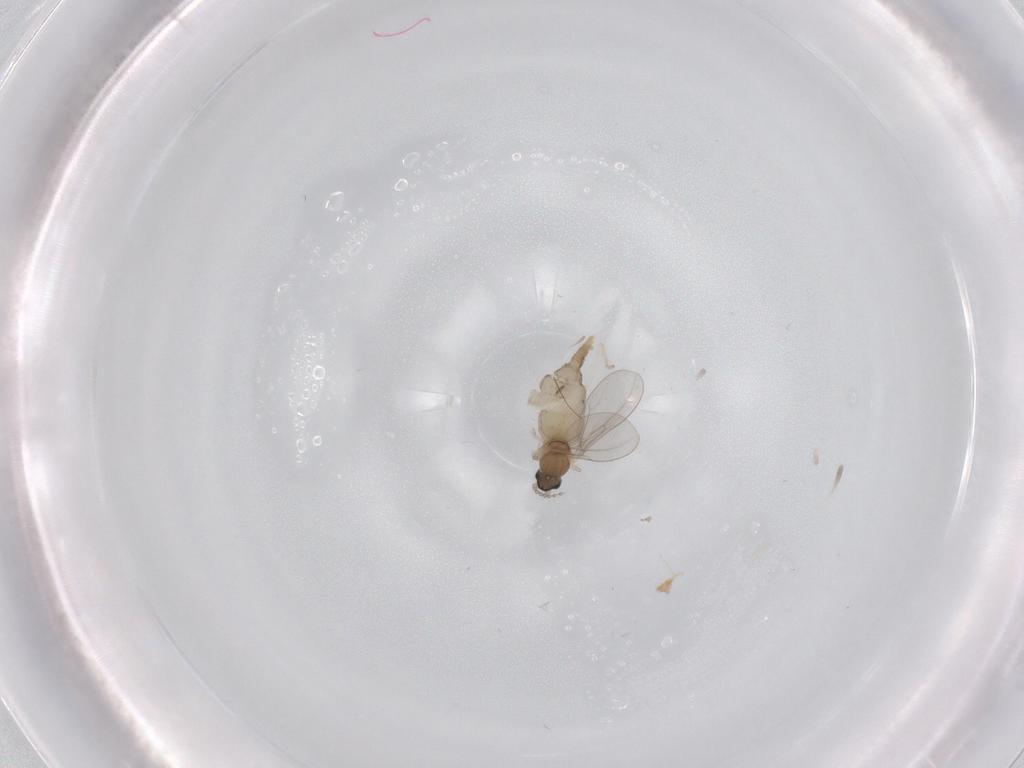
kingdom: Animalia
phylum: Arthropoda
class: Insecta
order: Diptera
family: Cecidomyiidae
